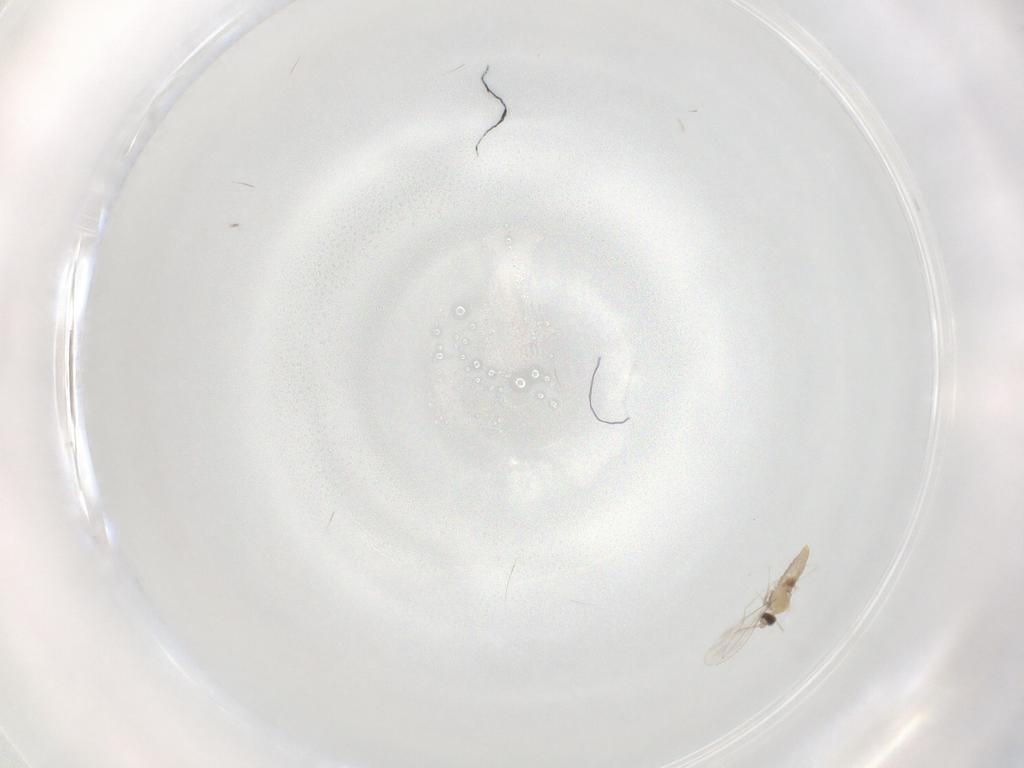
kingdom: Animalia
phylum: Arthropoda
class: Insecta
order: Diptera
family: Cecidomyiidae
